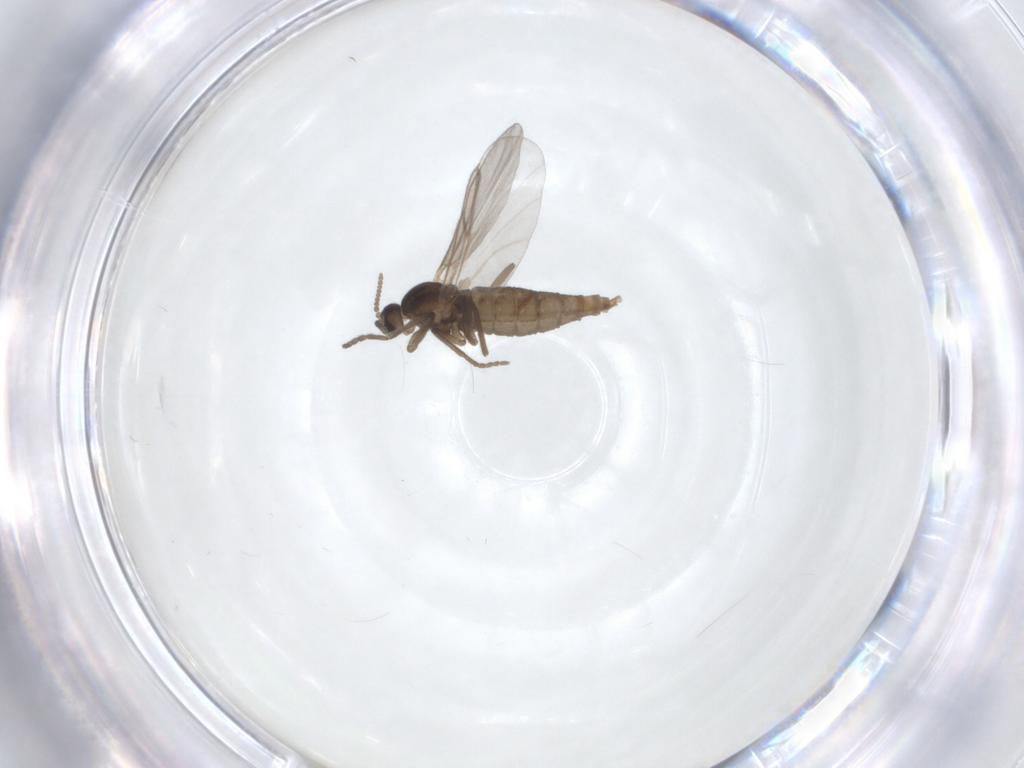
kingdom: Animalia
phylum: Arthropoda
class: Insecta
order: Diptera
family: Cecidomyiidae
